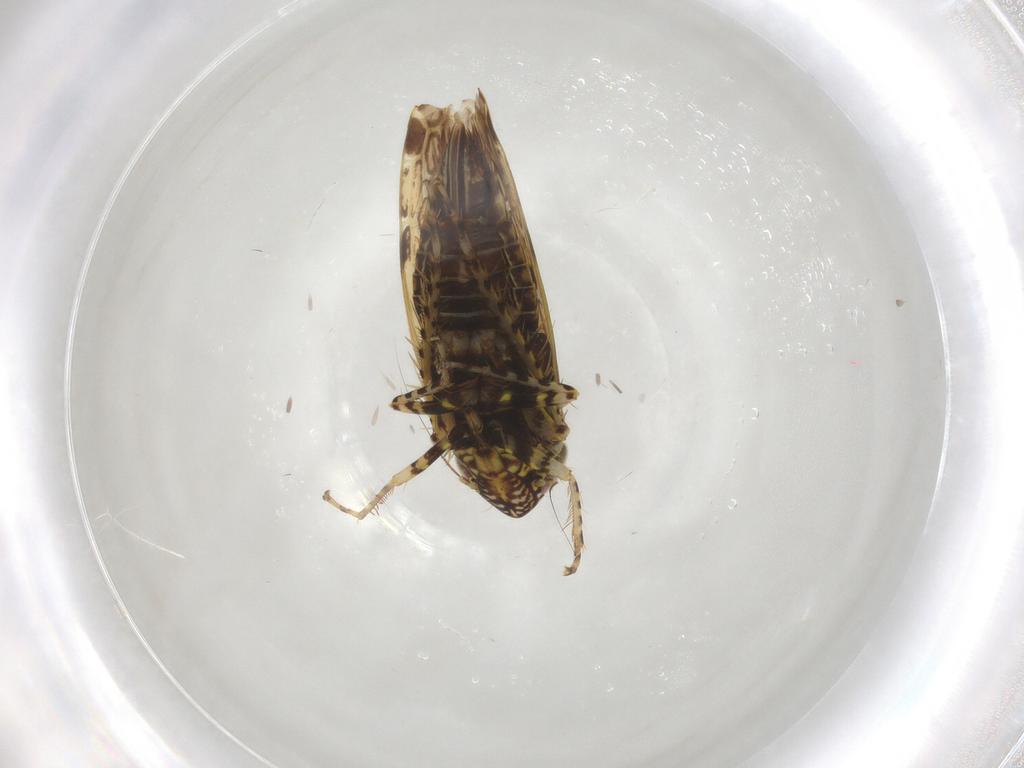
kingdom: Animalia
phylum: Arthropoda
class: Insecta
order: Hemiptera
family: Cicadellidae
